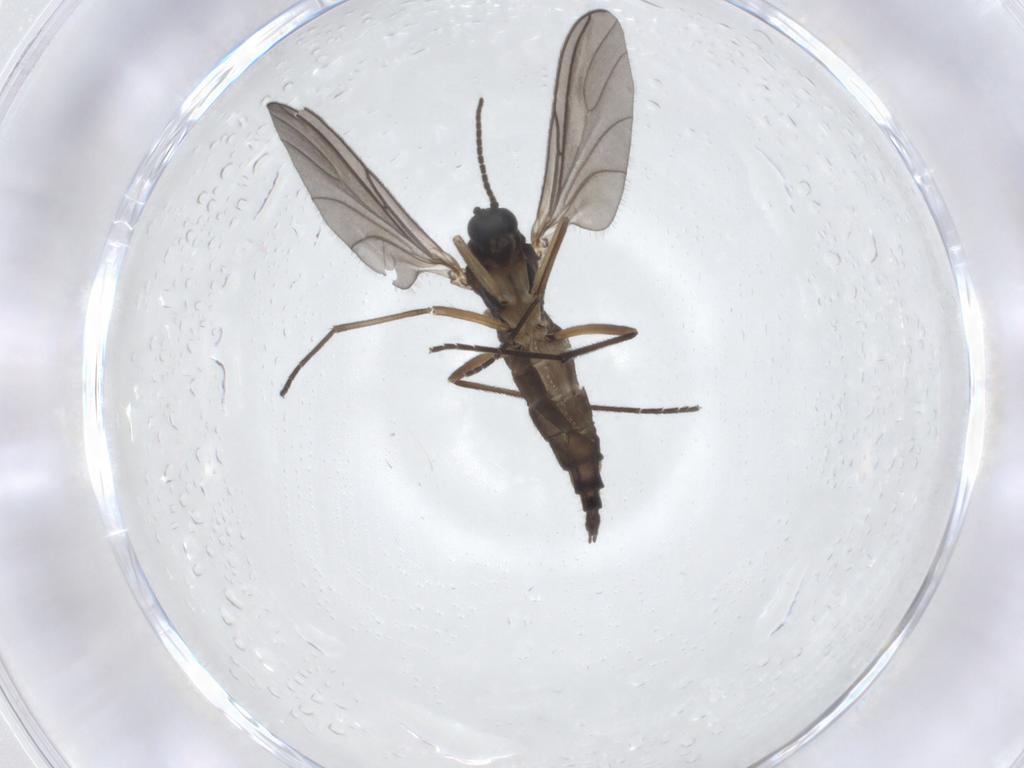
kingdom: Animalia
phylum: Arthropoda
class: Insecta
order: Diptera
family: Sciaridae
